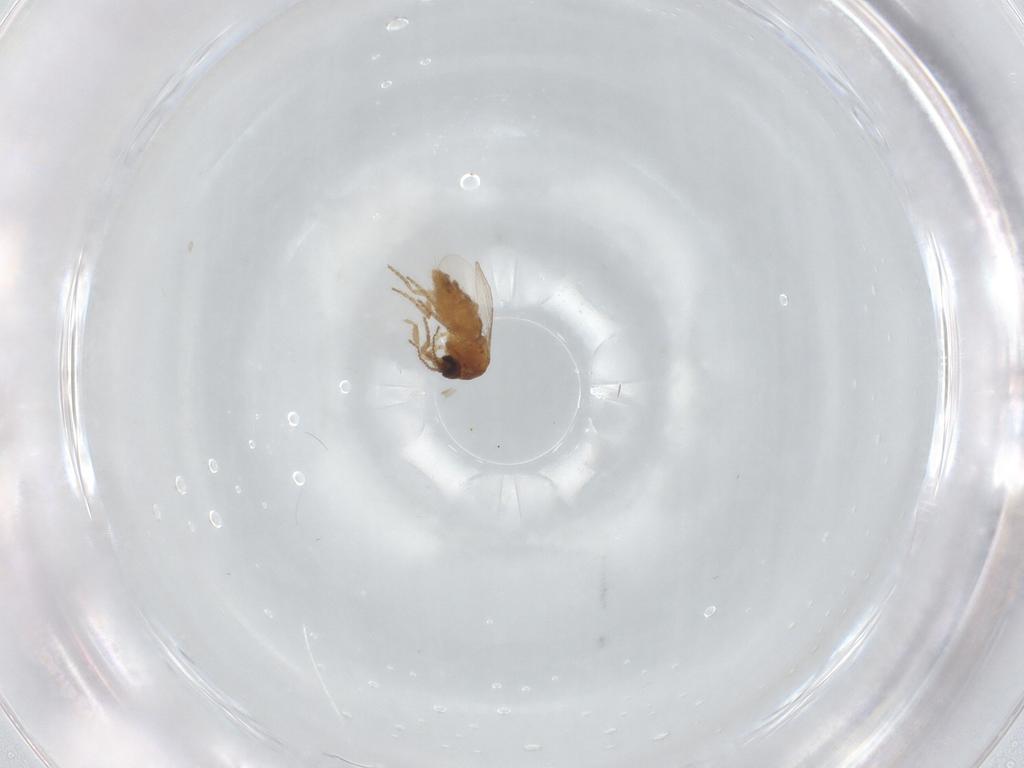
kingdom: Animalia
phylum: Arthropoda
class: Insecta
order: Diptera
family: Ceratopogonidae
